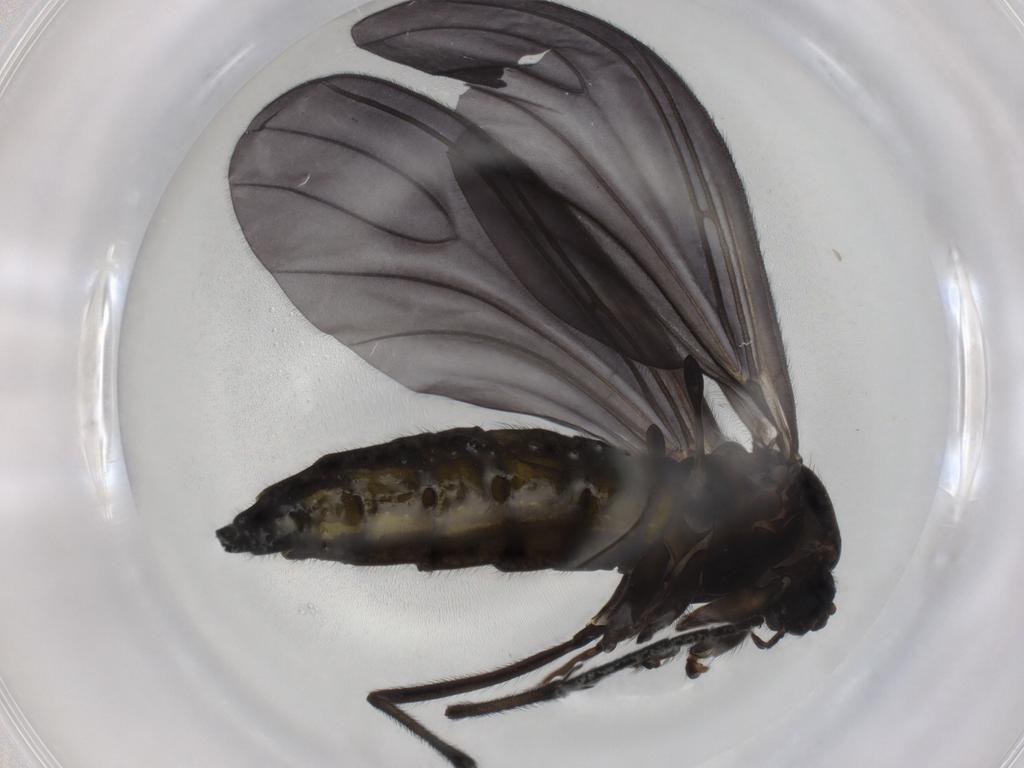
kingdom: Animalia
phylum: Arthropoda
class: Insecta
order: Diptera
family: Sciaridae
